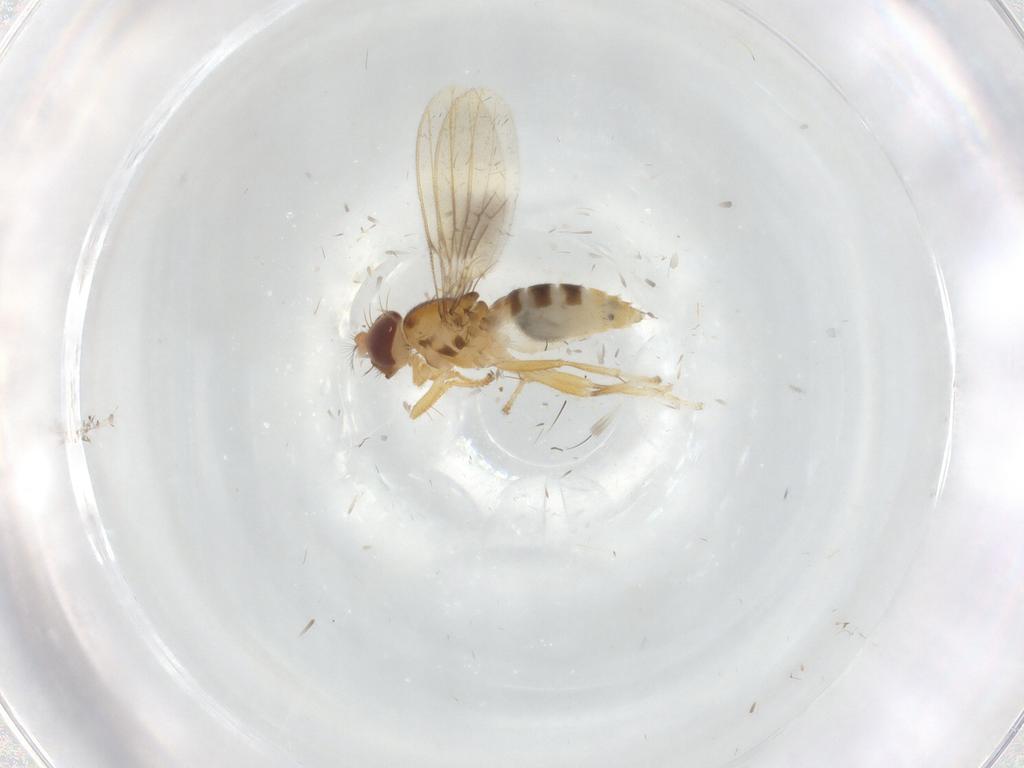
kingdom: Animalia
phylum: Arthropoda
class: Insecta
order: Diptera
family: Periscelididae
